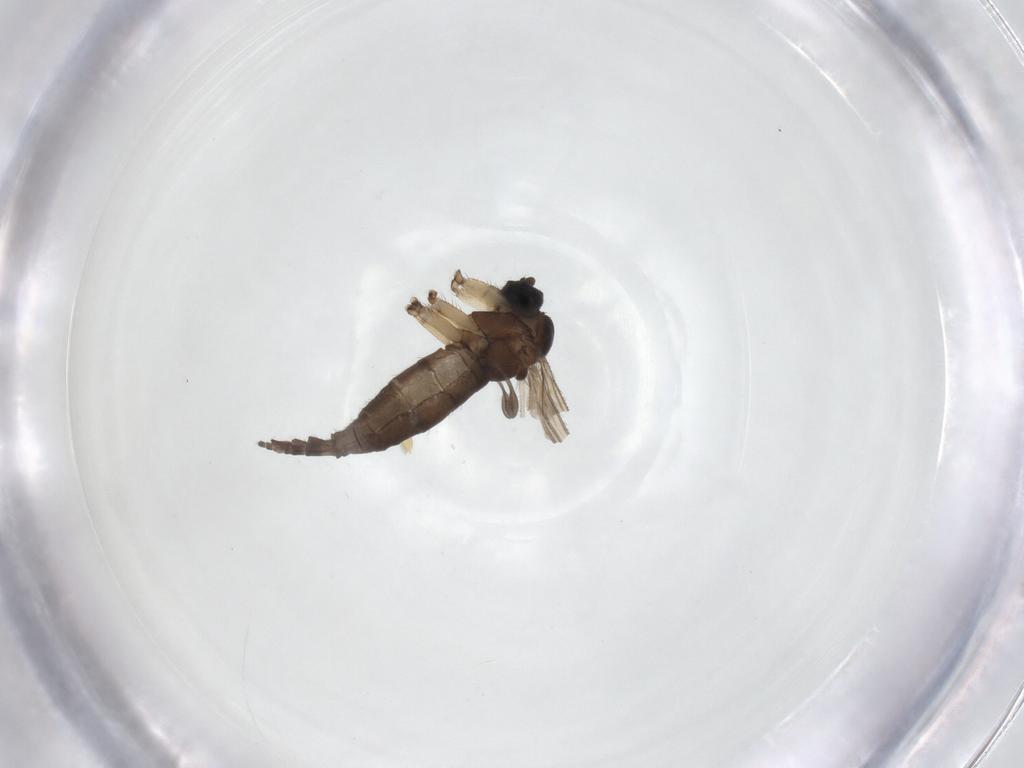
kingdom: Animalia
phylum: Arthropoda
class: Insecta
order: Diptera
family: Sciaridae
